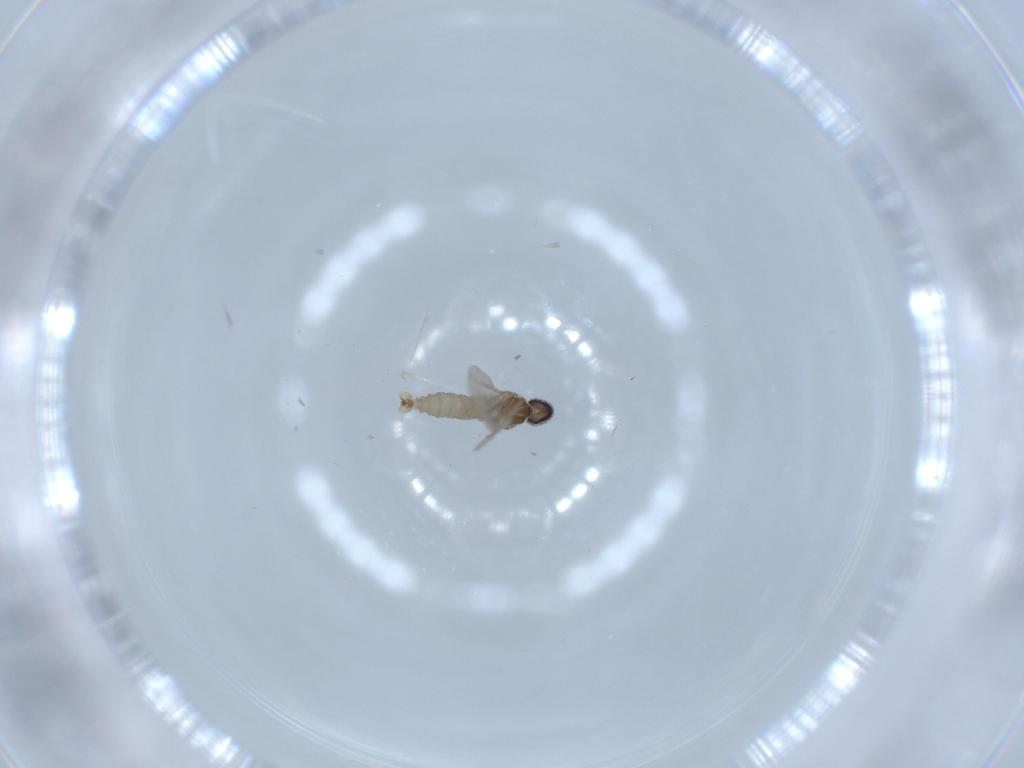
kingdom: Animalia
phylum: Arthropoda
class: Insecta
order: Diptera
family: Cecidomyiidae
